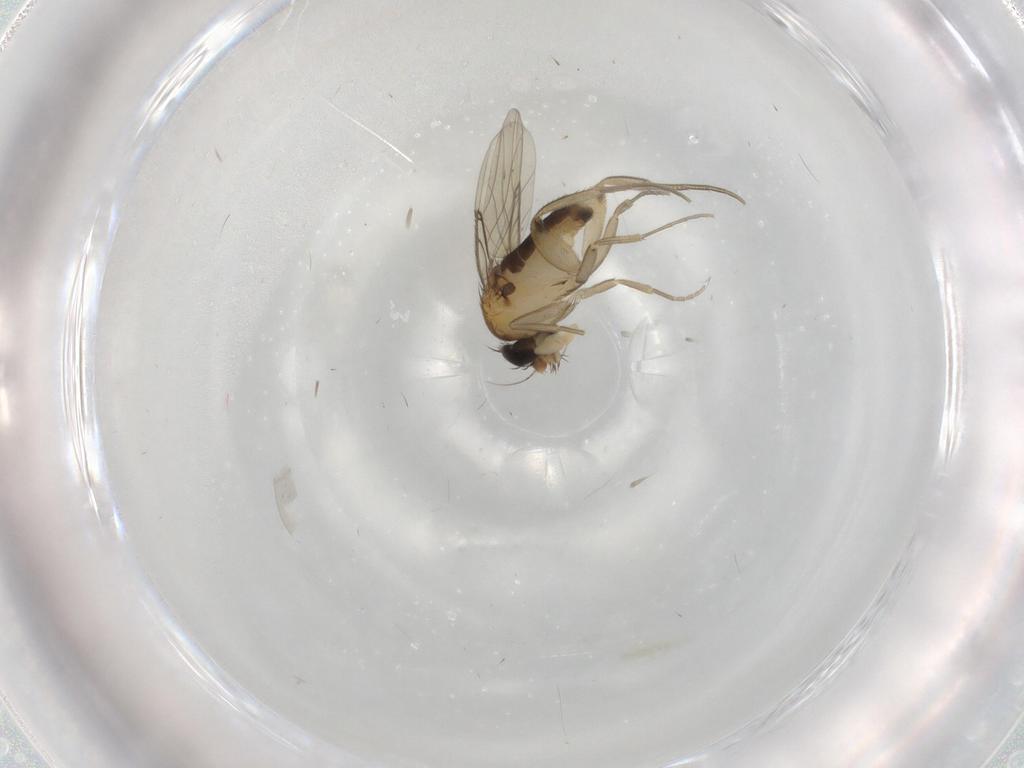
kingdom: Animalia
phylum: Arthropoda
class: Insecta
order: Diptera
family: Phoridae
